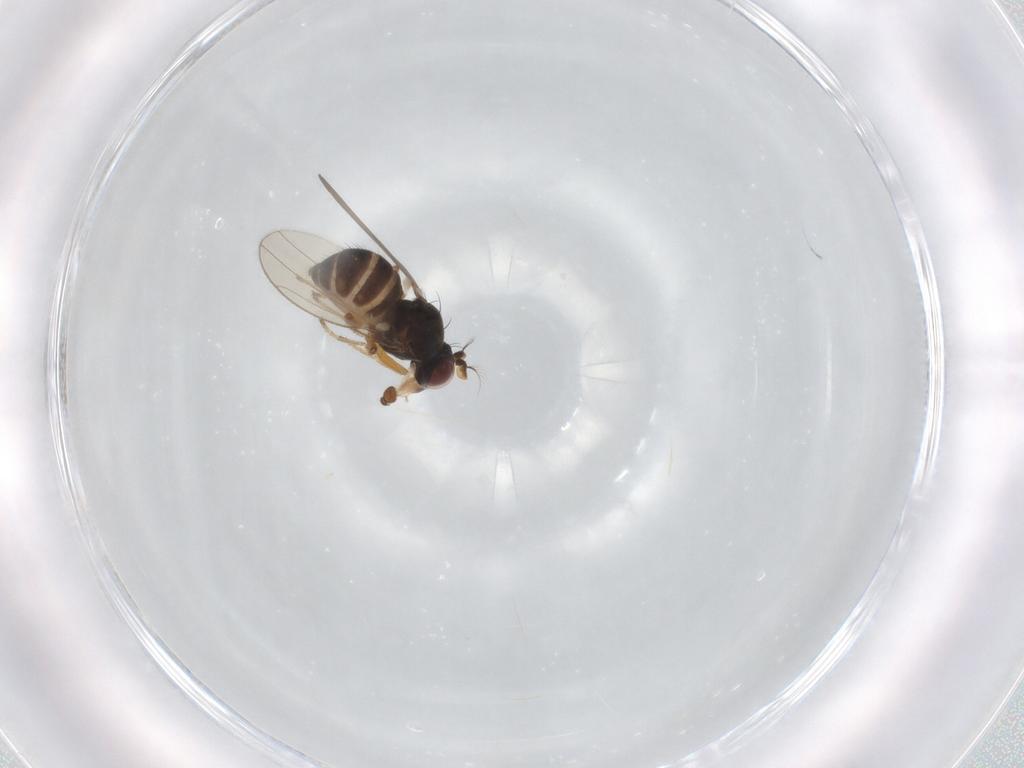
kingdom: Animalia
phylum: Arthropoda
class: Insecta
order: Diptera
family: Ephydridae
